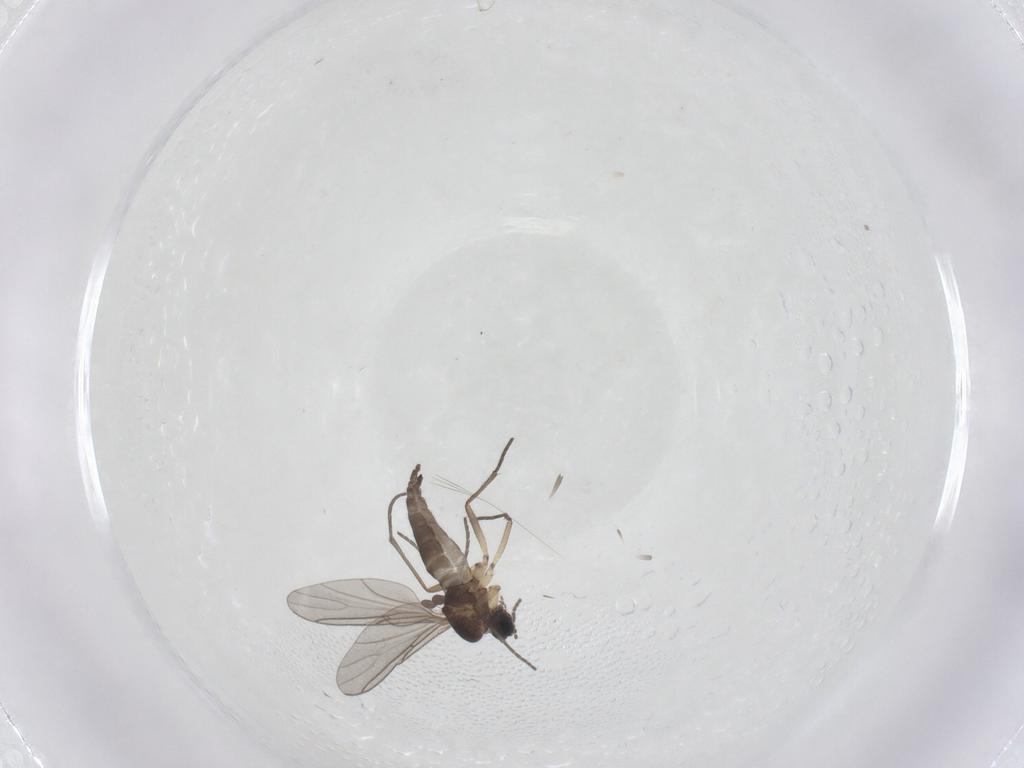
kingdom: Animalia
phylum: Arthropoda
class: Insecta
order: Diptera
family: Sciaridae
